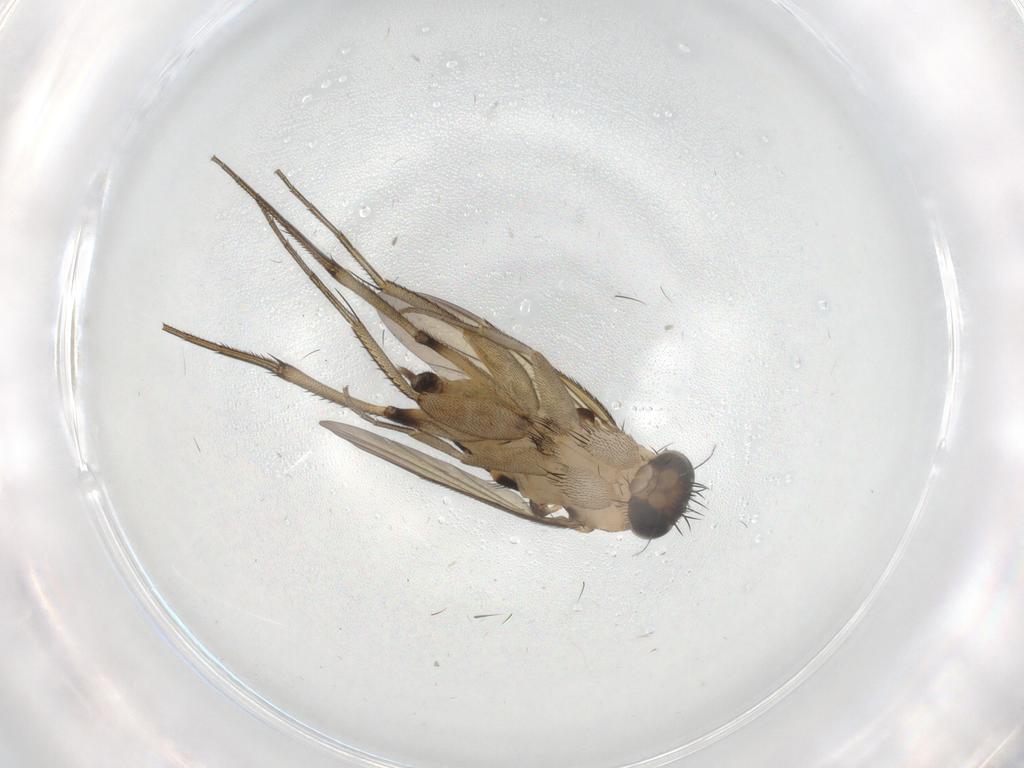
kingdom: Animalia
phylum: Arthropoda
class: Insecta
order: Diptera
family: Phoridae
